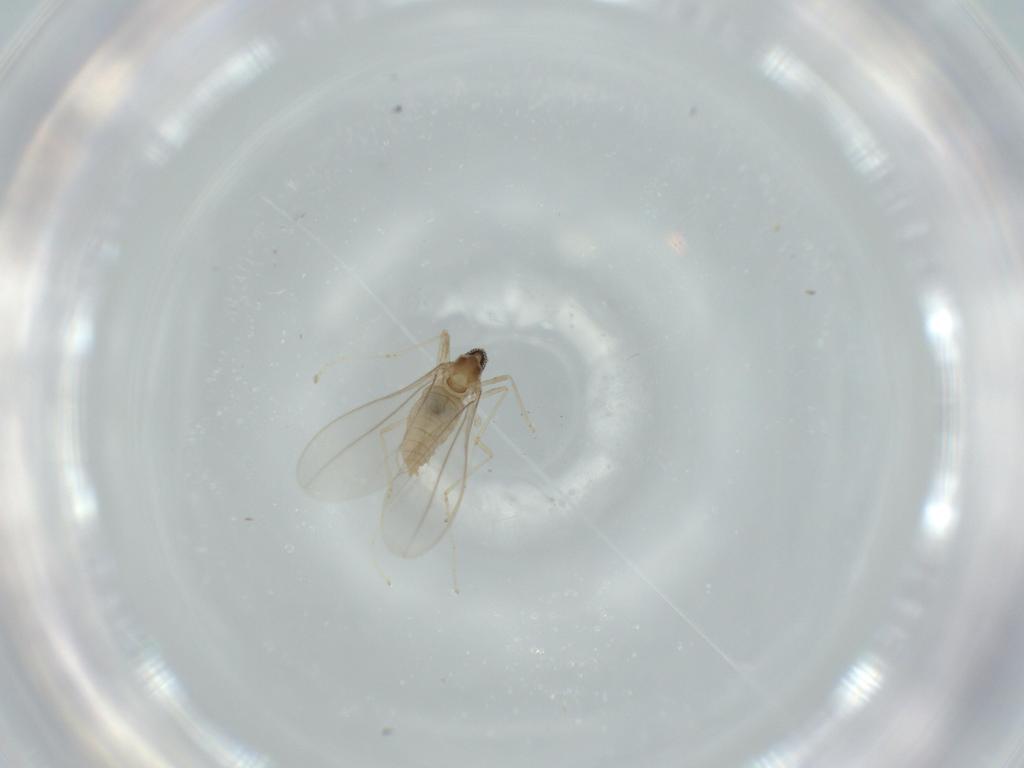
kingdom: Animalia
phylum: Arthropoda
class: Insecta
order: Diptera
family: Cecidomyiidae
